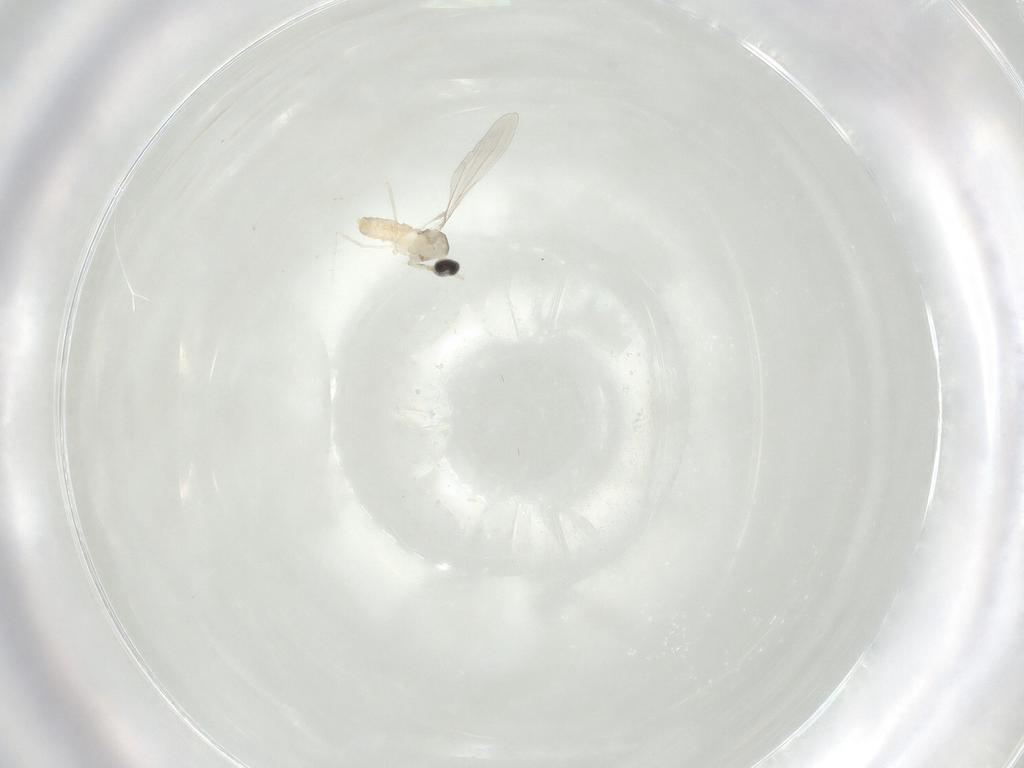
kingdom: Animalia
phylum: Arthropoda
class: Insecta
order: Diptera
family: Cecidomyiidae
